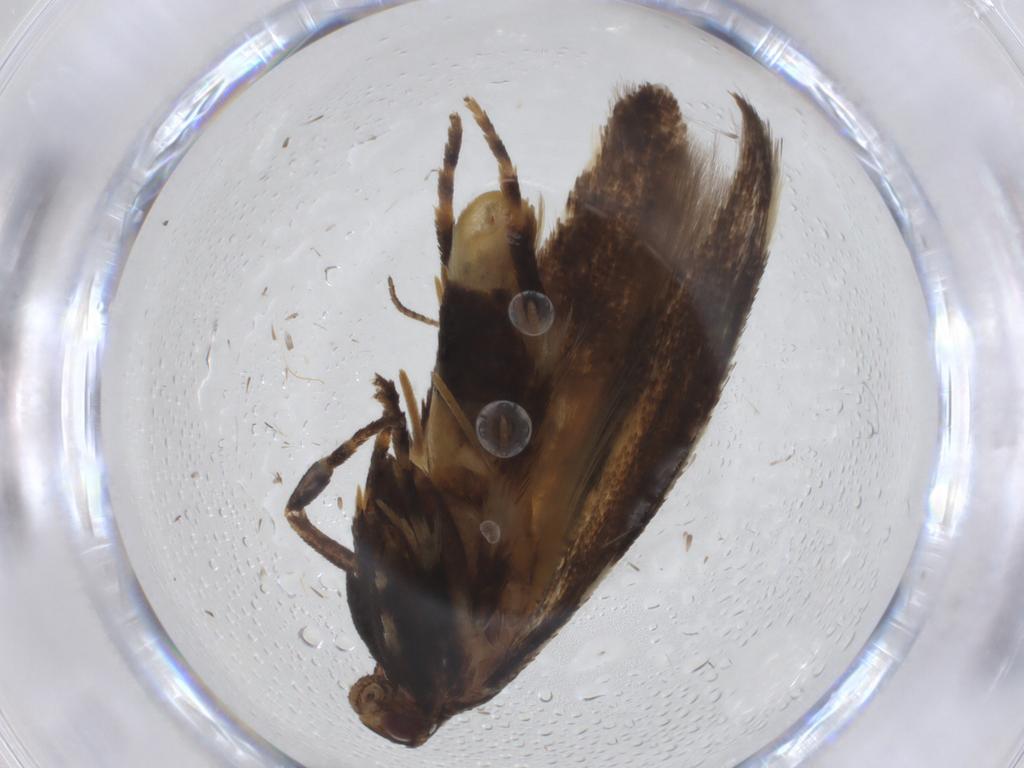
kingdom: Animalia
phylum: Arthropoda
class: Insecta
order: Lepidoptera
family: Cosmopterigidae
